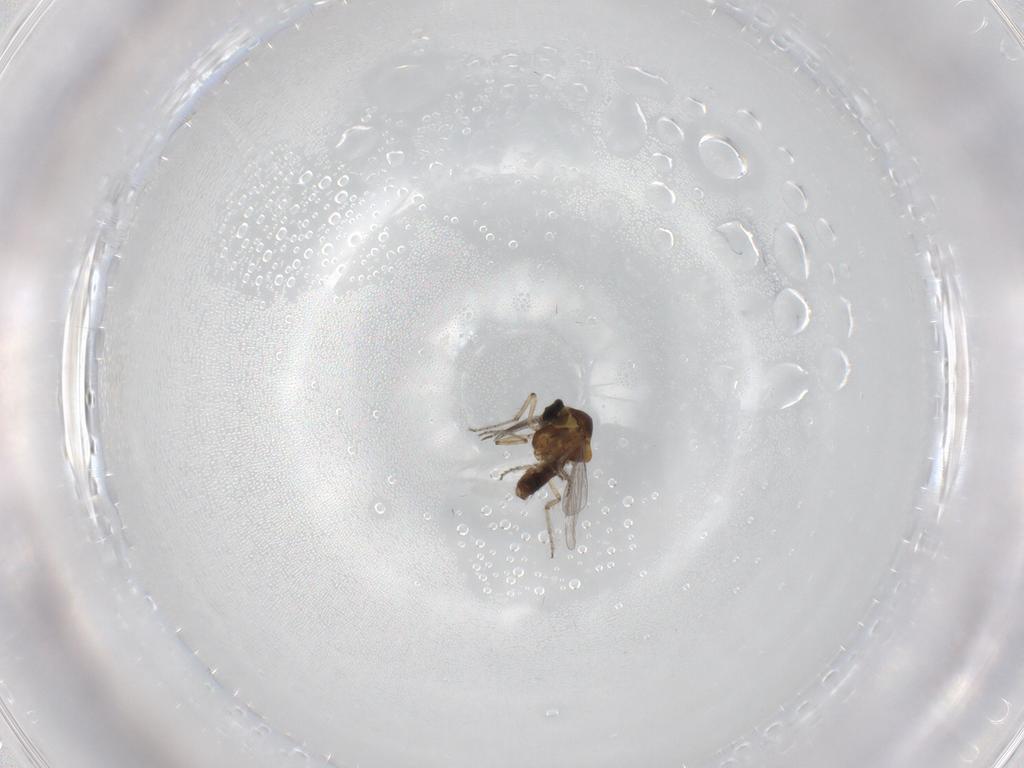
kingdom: Animalia
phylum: Arthropoda
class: Insecta
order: Diptera
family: Ceratopogonidae
